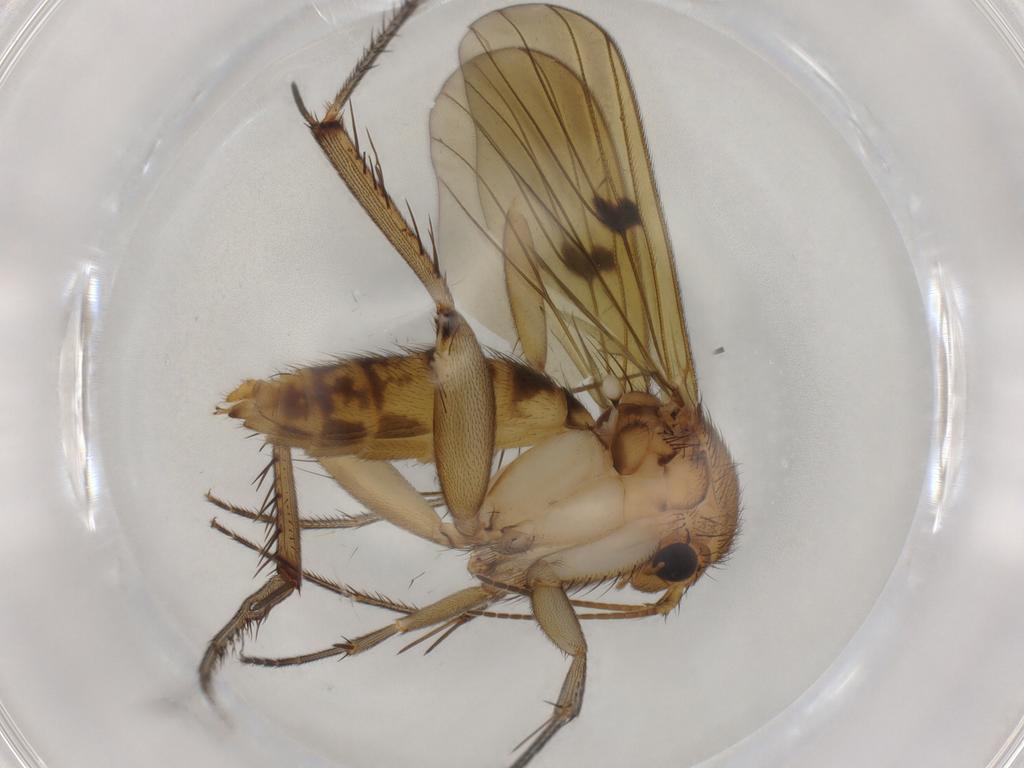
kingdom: Animalia
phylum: Arthropoda
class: Insecta
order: Diptera
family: Mycetophilidae
